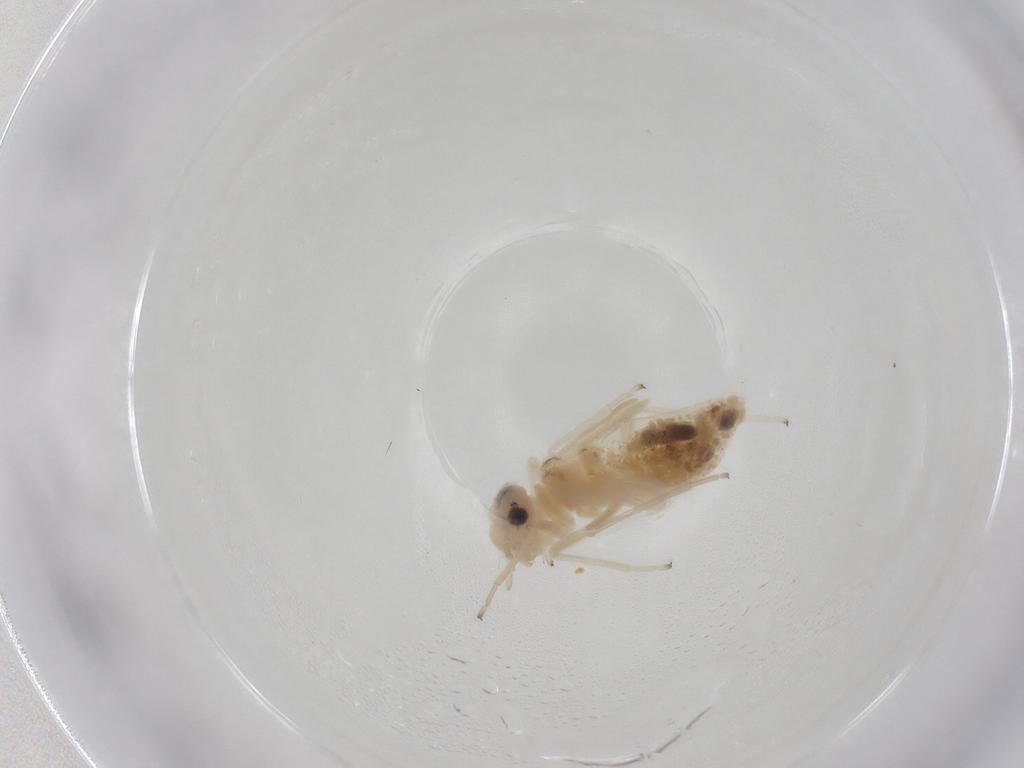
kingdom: Animalia
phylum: Arthropoda
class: Insecta
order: Psocodea
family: Caeciliusidae
